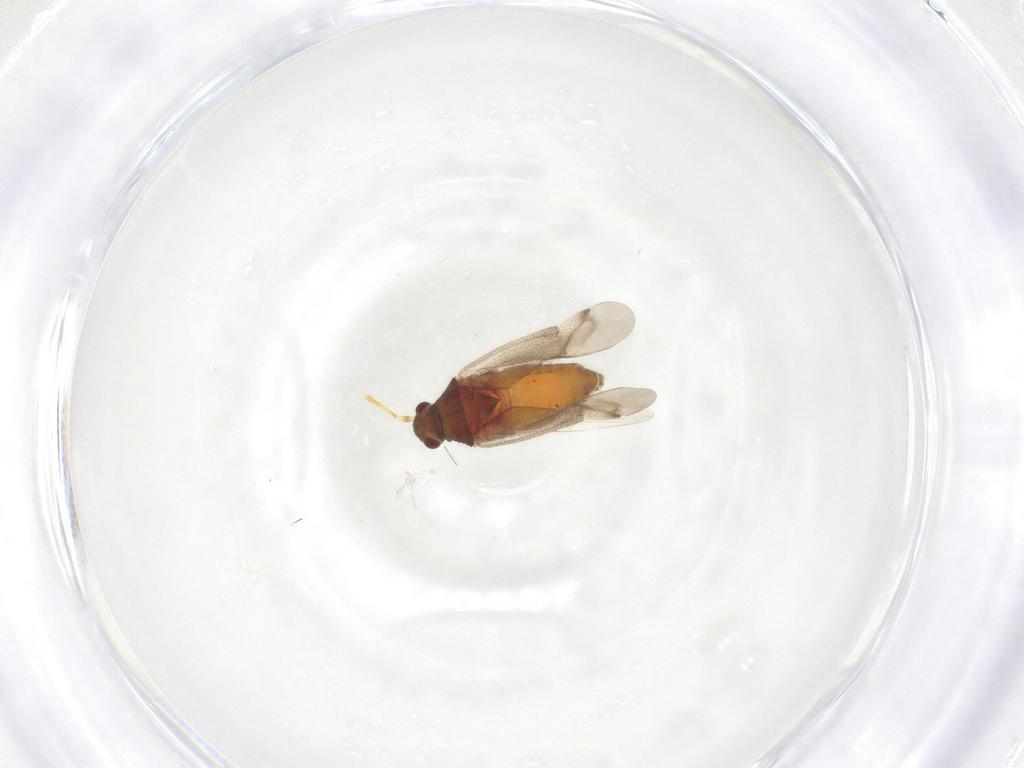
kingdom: Animalia
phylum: Arthropoda
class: Insecta
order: Hemiptera
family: Miridae
